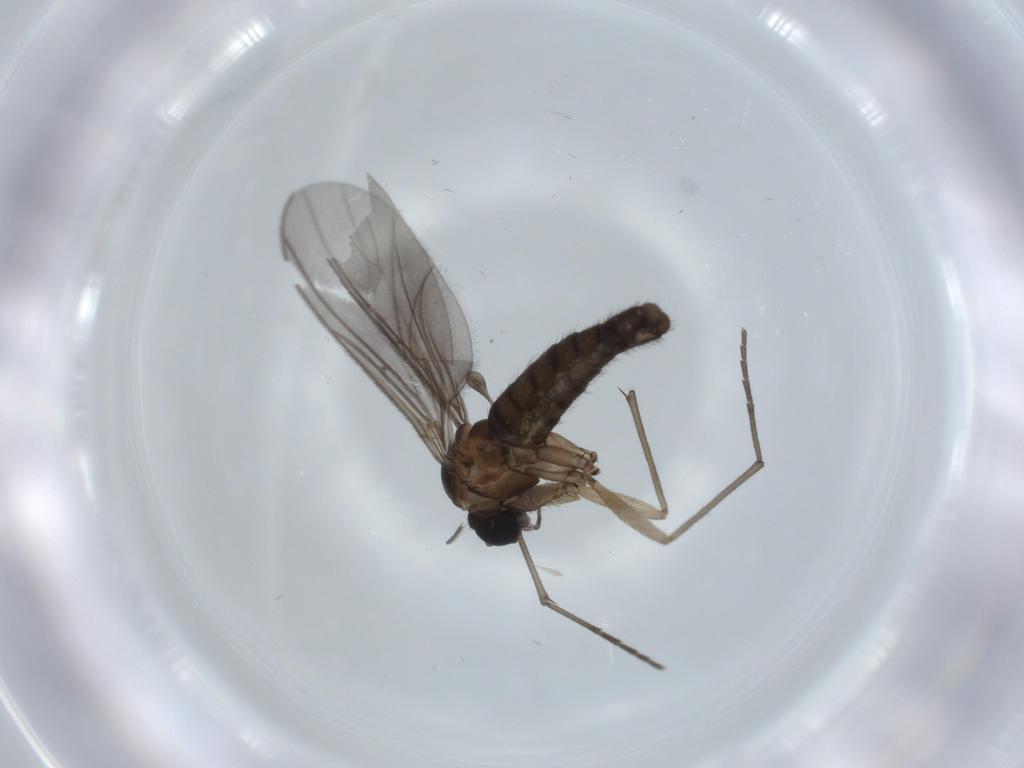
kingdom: Animalia
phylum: Arthropoda
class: Insecta
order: Diptera
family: Sciaridae
